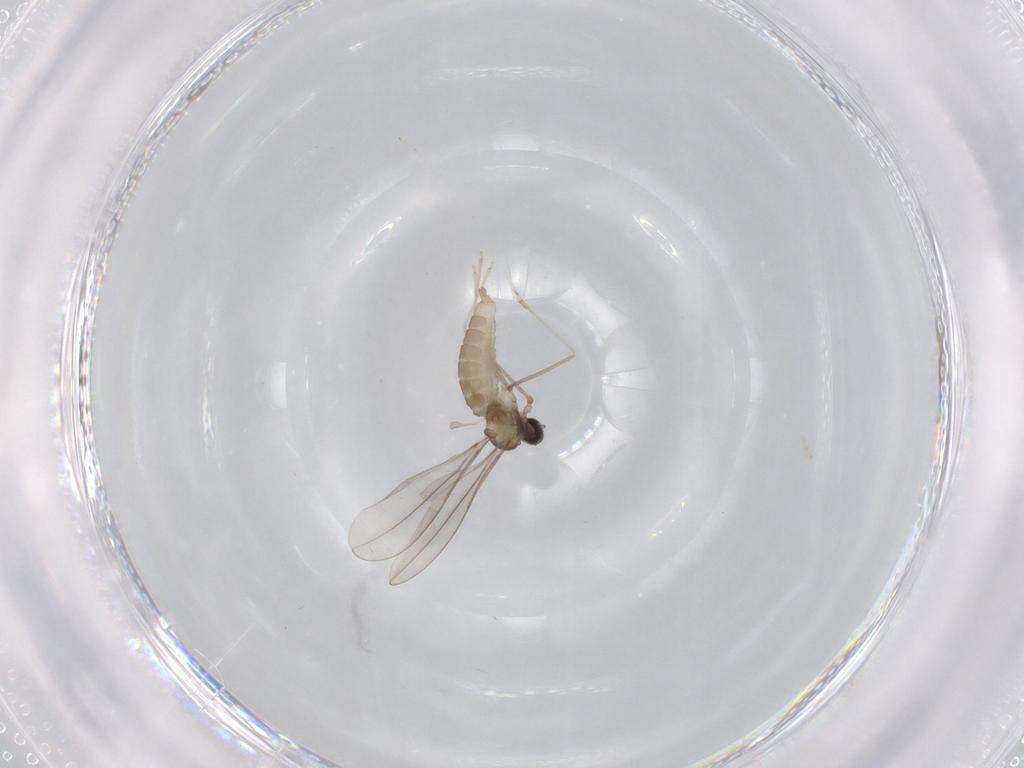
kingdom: Animalia
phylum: Arthropoda
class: Insecta
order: Diptera
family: Cecidomyiidae
